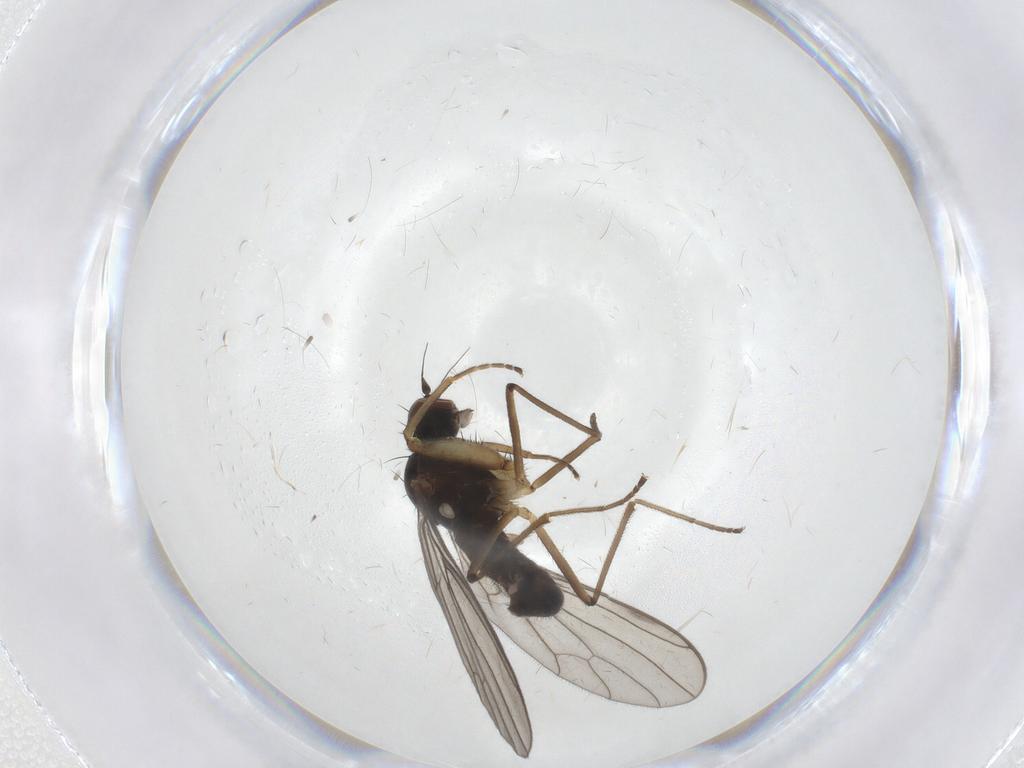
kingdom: Animalia
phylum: Arthropoda
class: Insecta
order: Diptera
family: Empididae
